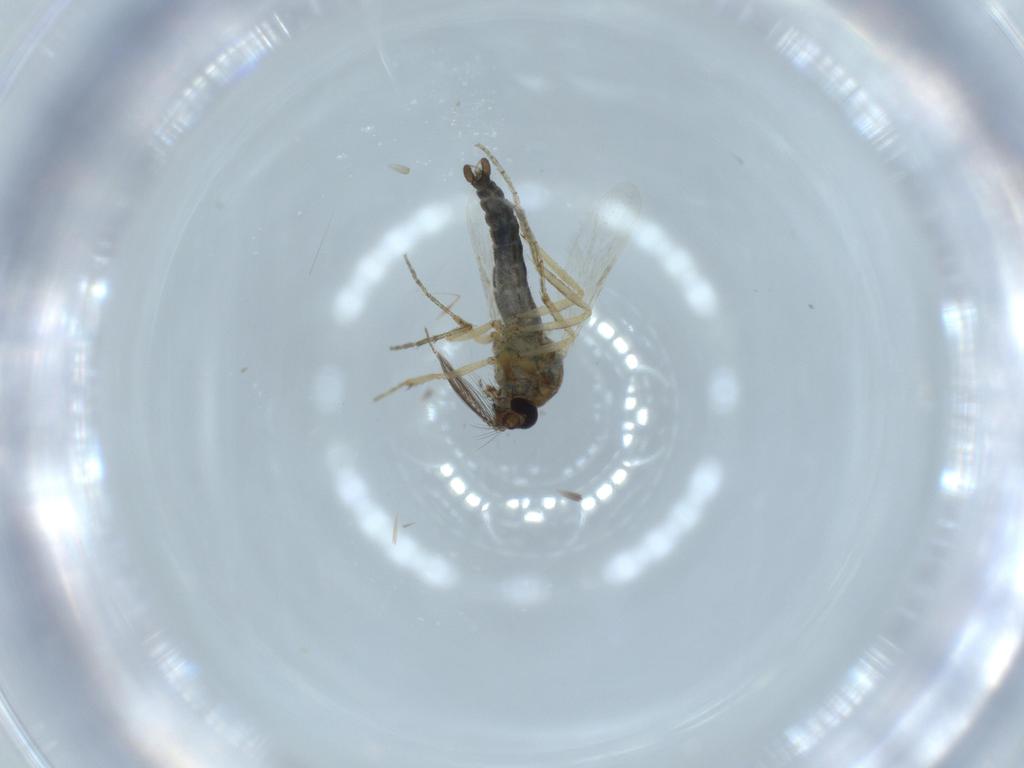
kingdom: Animalia
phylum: Arthropoda
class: Insecta
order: Diptera
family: Ceratopogonidae
